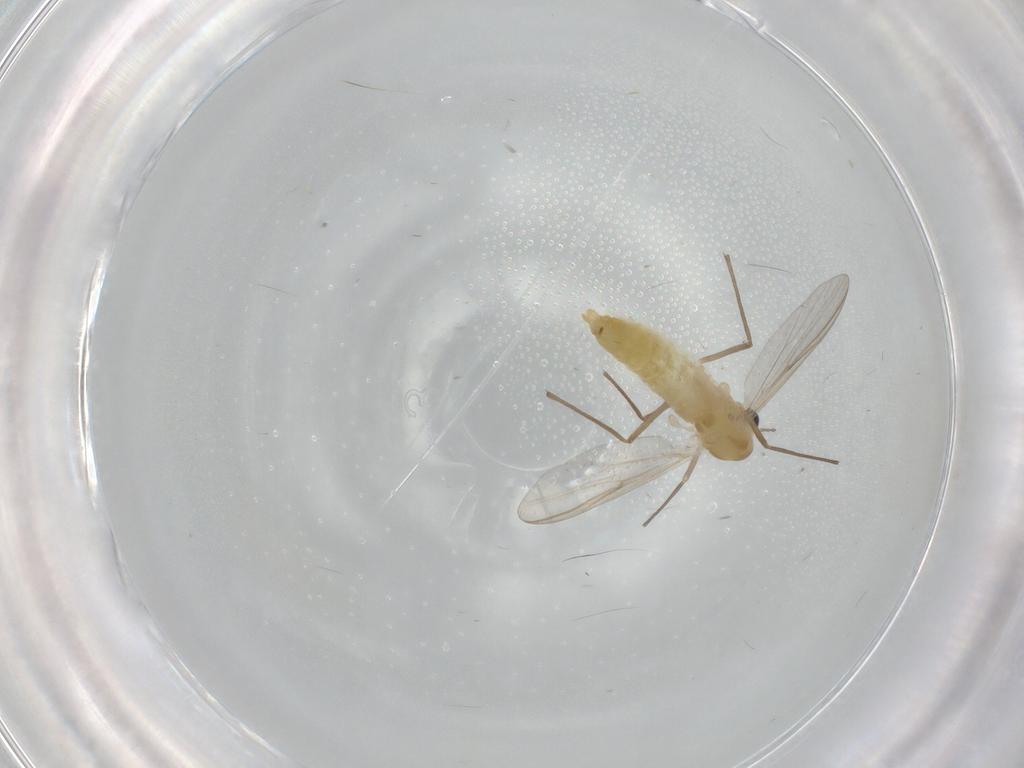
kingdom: Animalia
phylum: Arthropoda
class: Insecta
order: Diptera
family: Chironomidae
